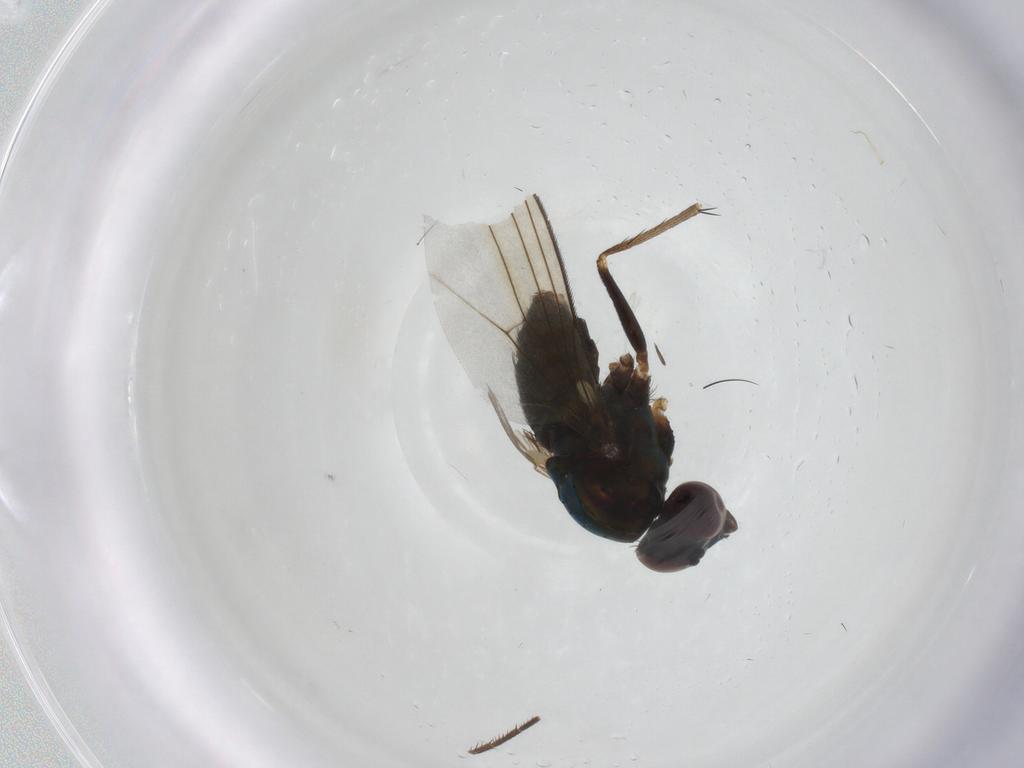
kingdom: Animalia
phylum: Arthropoda
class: Insecta
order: Diptera
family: Dolichopodidae
